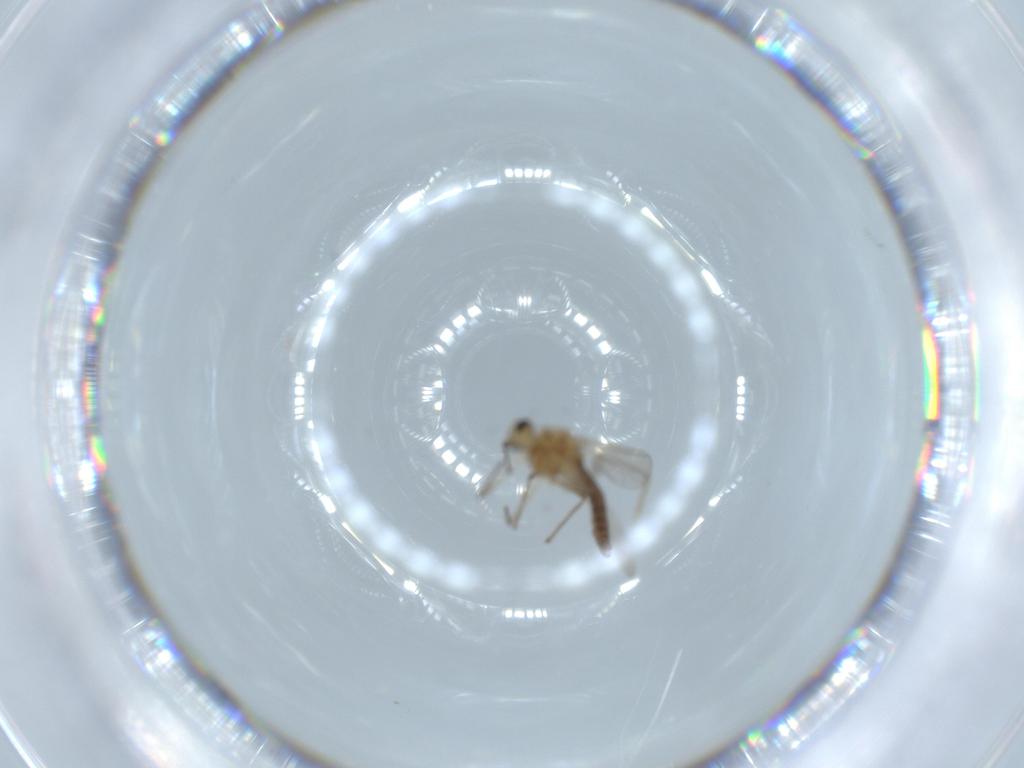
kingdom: Animalia
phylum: Arthropoda
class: Insecta
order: Diptera
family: Chironomidae
